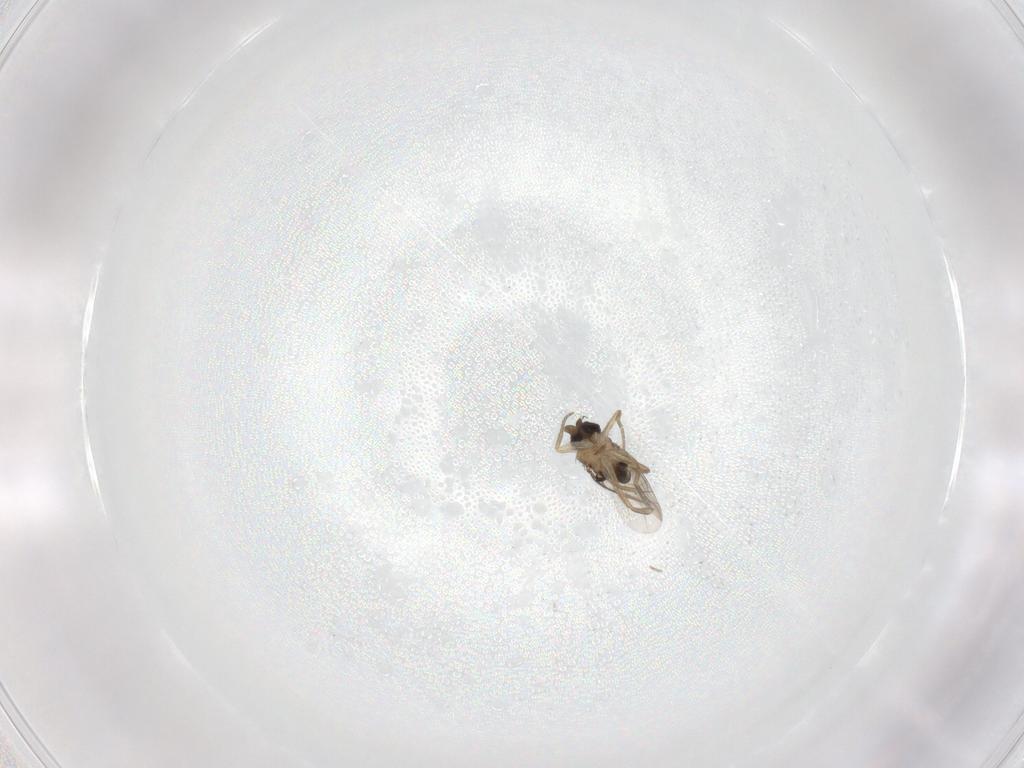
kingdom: Animalia
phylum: Arthropoda
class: Insecta
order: Diptera
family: Phoridae
